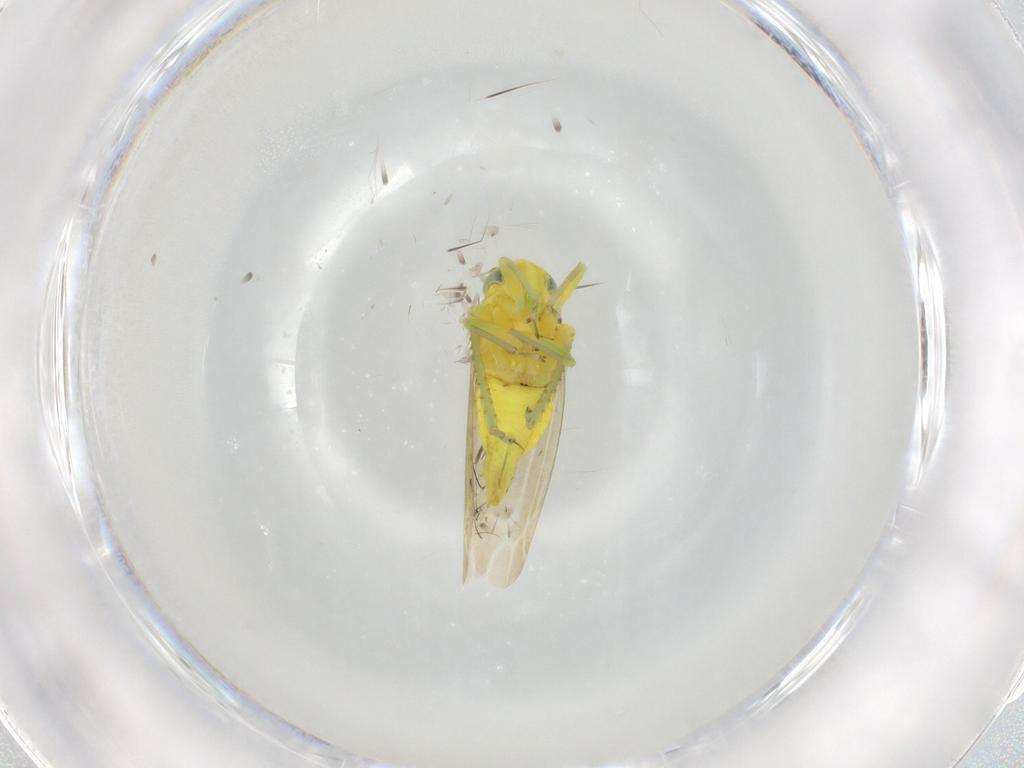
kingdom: Animalia
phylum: Arthropoda
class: Insecta
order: Hemiptera
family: Cicadellidae
